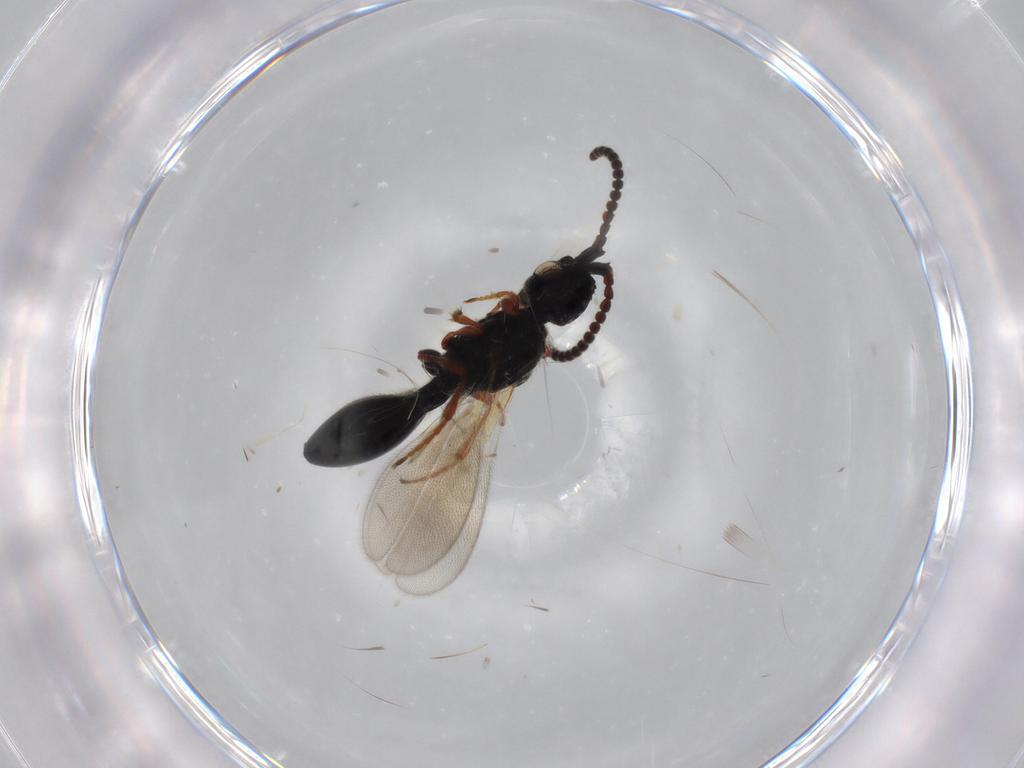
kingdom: Animalia
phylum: Arthropoda
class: Insecta
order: Hymenoptera
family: Diapriidae
